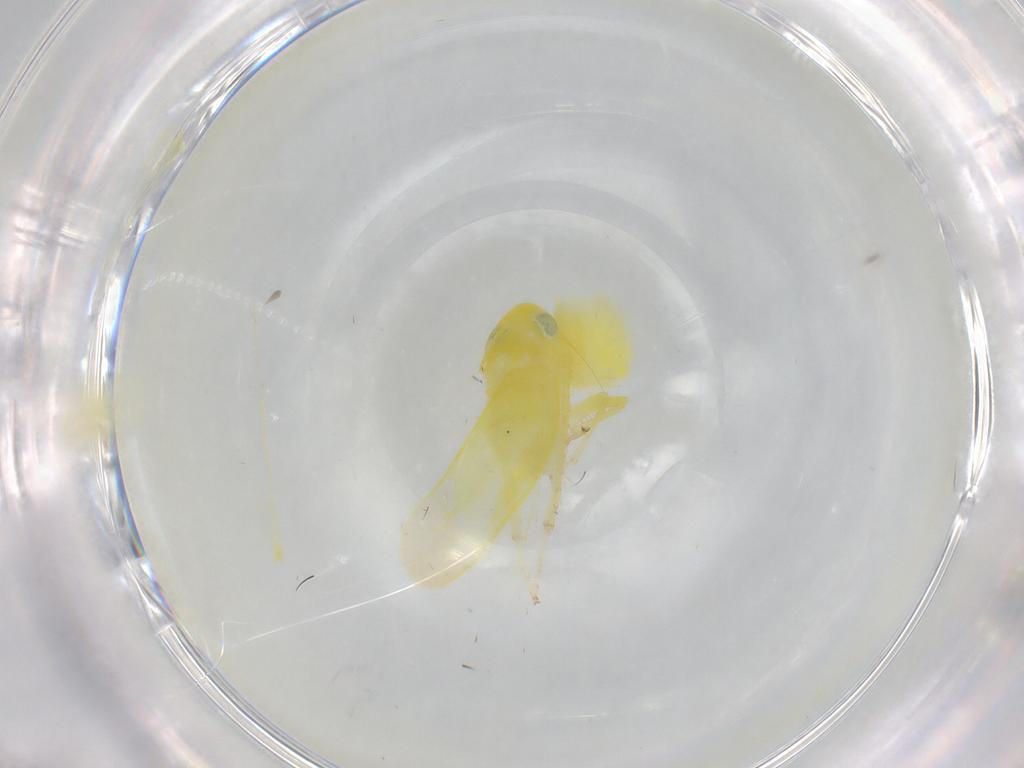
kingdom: Animalia
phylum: Arthropoda
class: Insecta
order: Hemiptera
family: Cicadellidae
